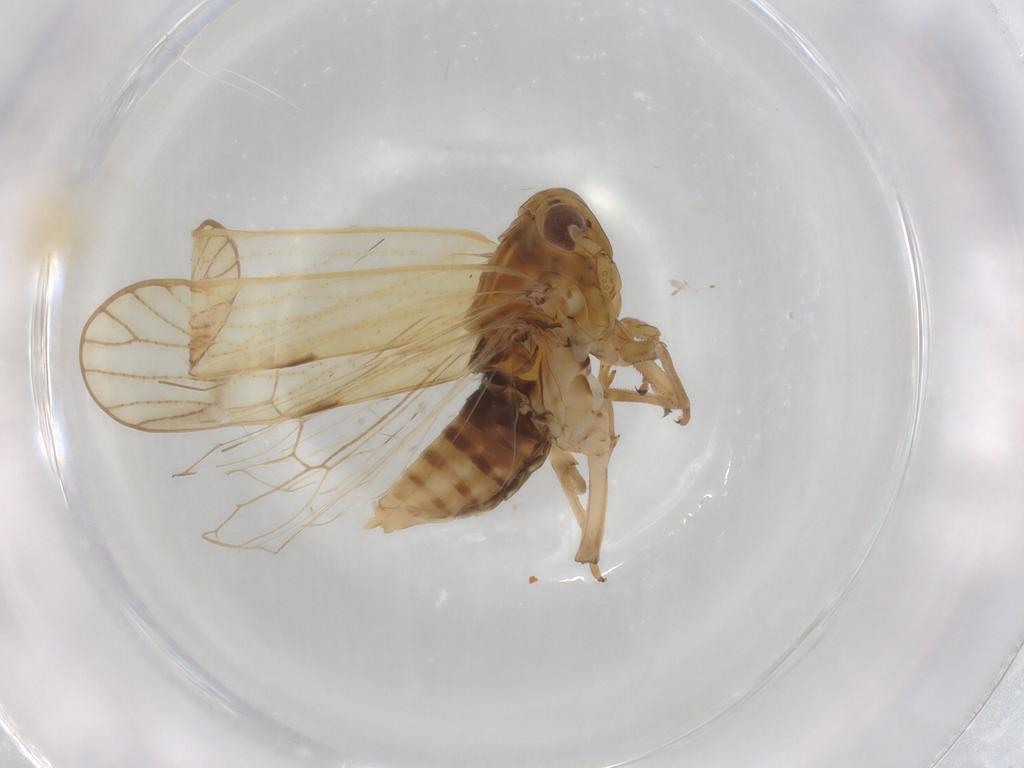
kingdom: Animalia
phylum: Arthropoda
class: Insecta
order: Hemiptera
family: Delphacidae
